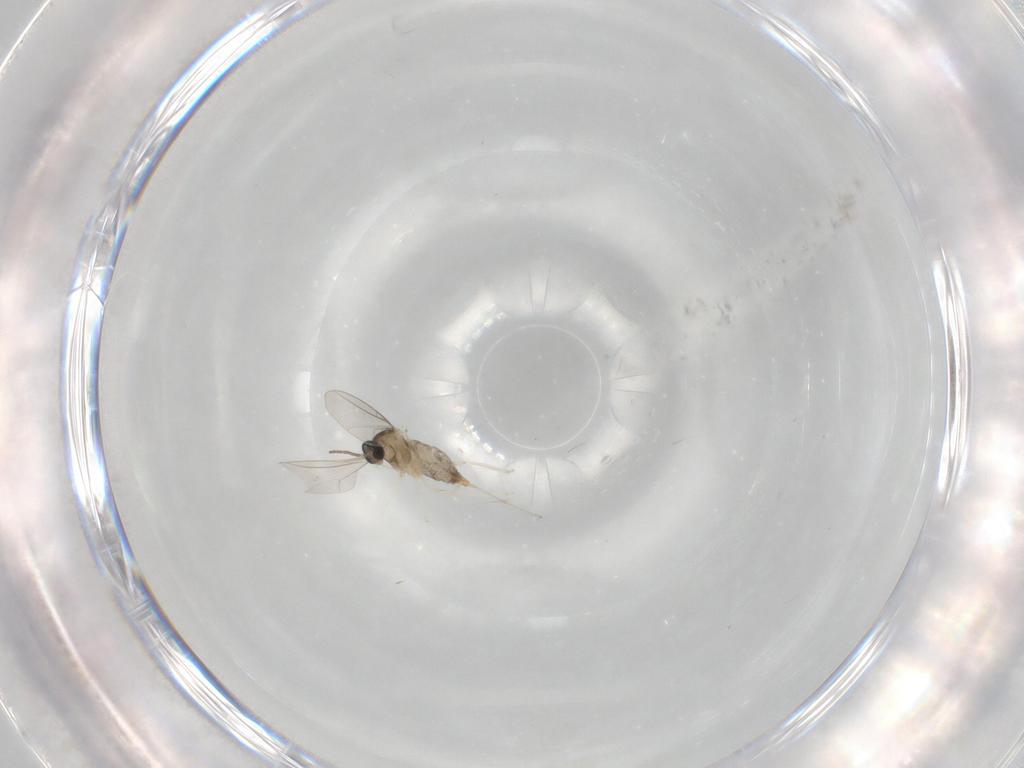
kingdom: Animalia
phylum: Arthropoda
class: Insecta
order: Diptera
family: Cecidomyiidae
